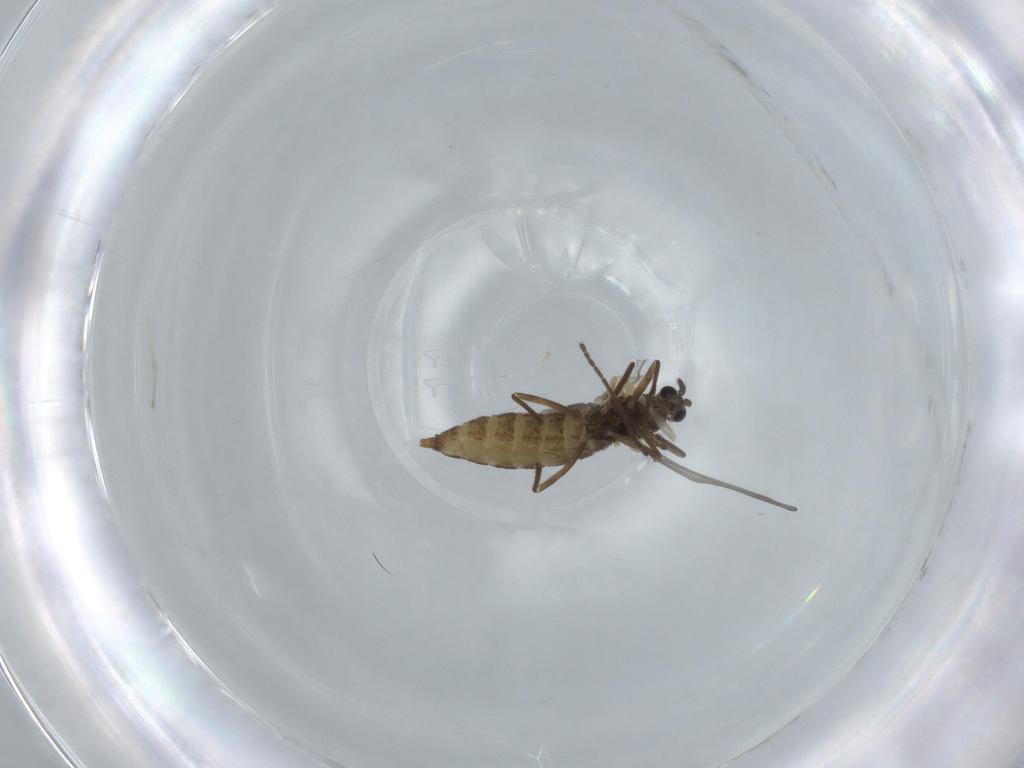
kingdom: Animalia
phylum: Arthropoda
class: Insecta
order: Diptera
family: Cecidomyiidae
